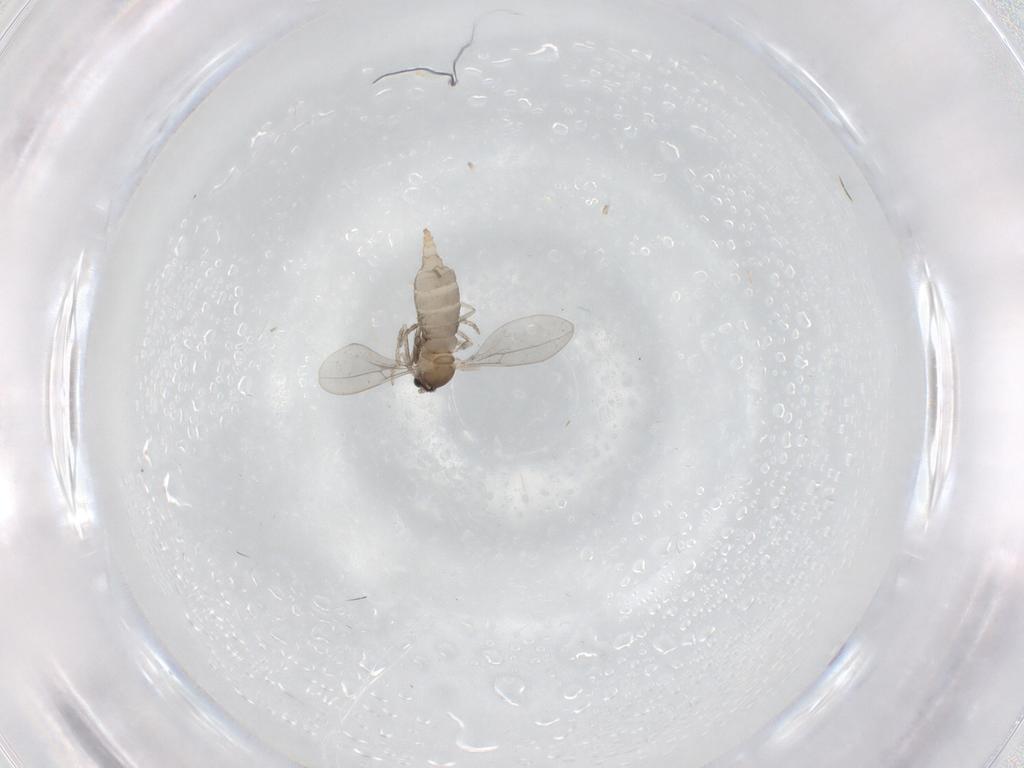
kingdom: Animalia
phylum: Arthropoda
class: Insecta
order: Diptera
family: Sciaridae
